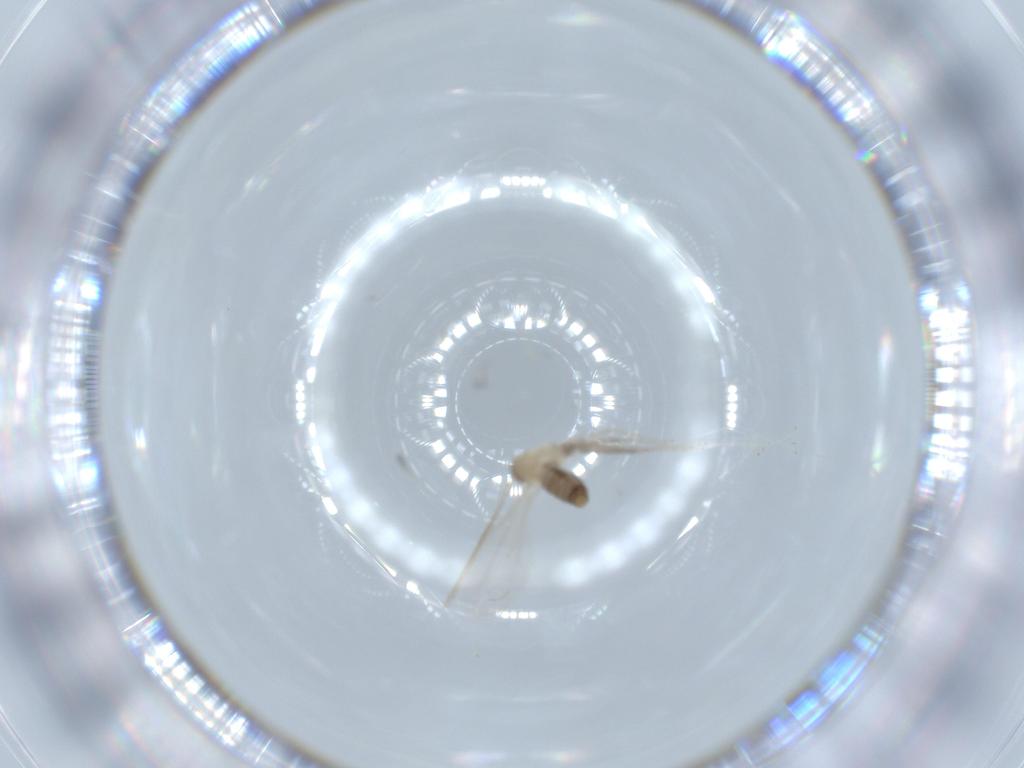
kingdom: Animalia
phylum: Arthropoda
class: Insecta
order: Diptera
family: Cecidomyiidae
